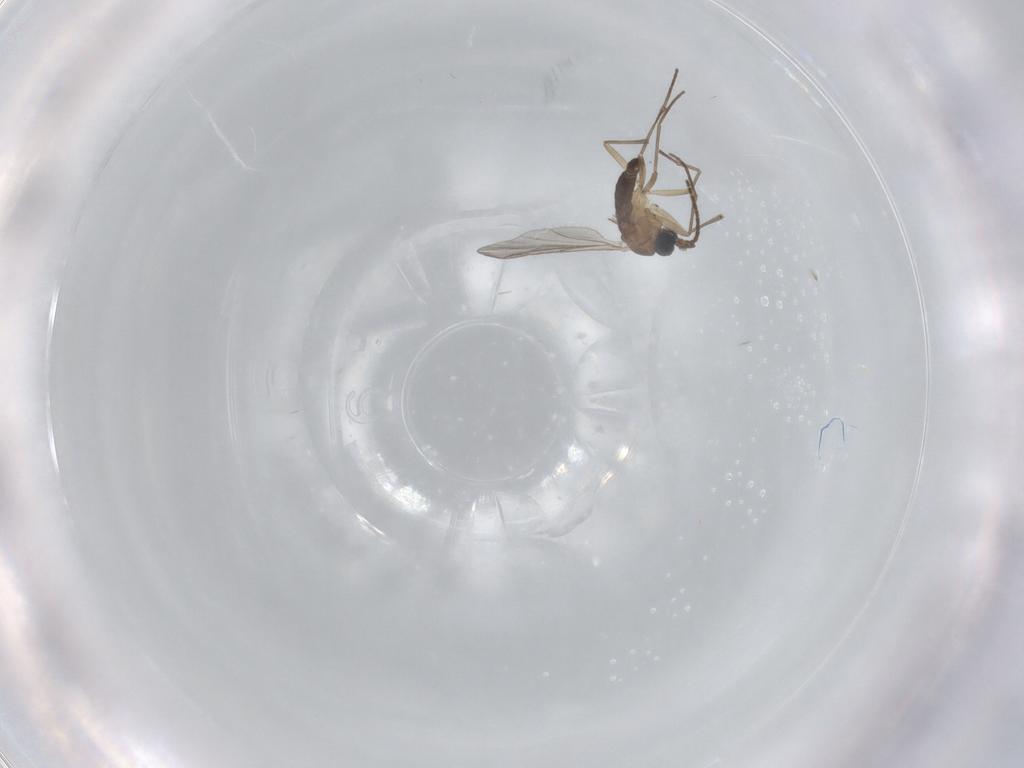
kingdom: Animalia
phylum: Arthropoda
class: Insecta
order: Diptera
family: Sciaridae
